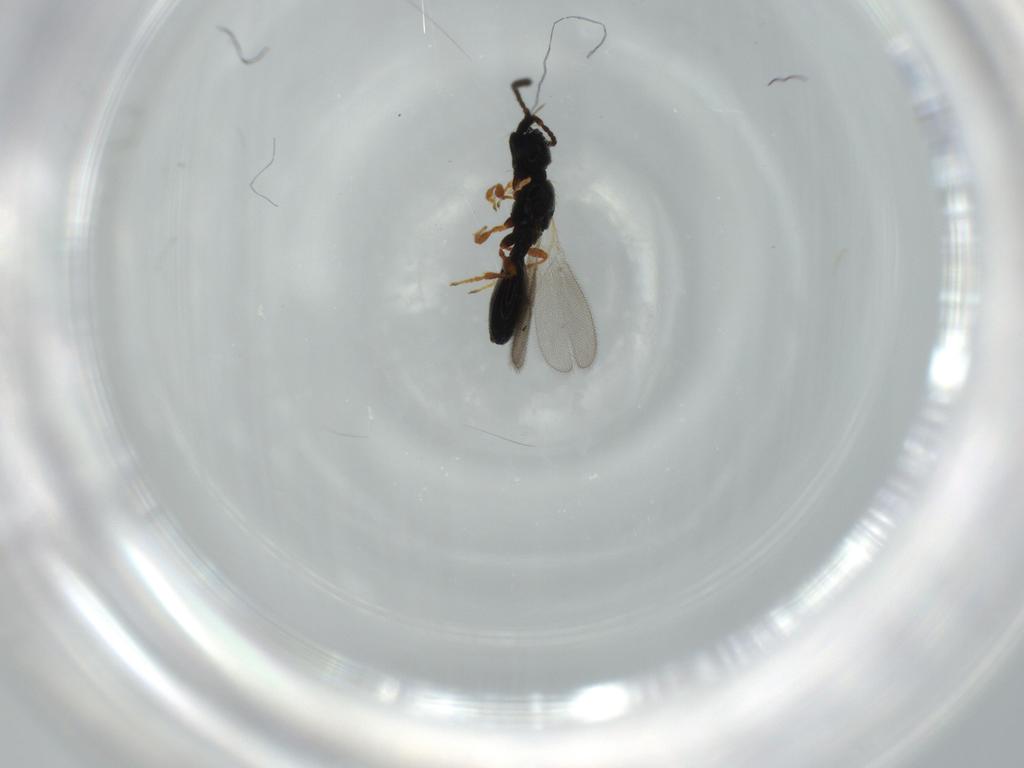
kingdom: Animalia
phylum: Arthropoda
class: Insecta
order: Hymenoptera
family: Diapriidae
